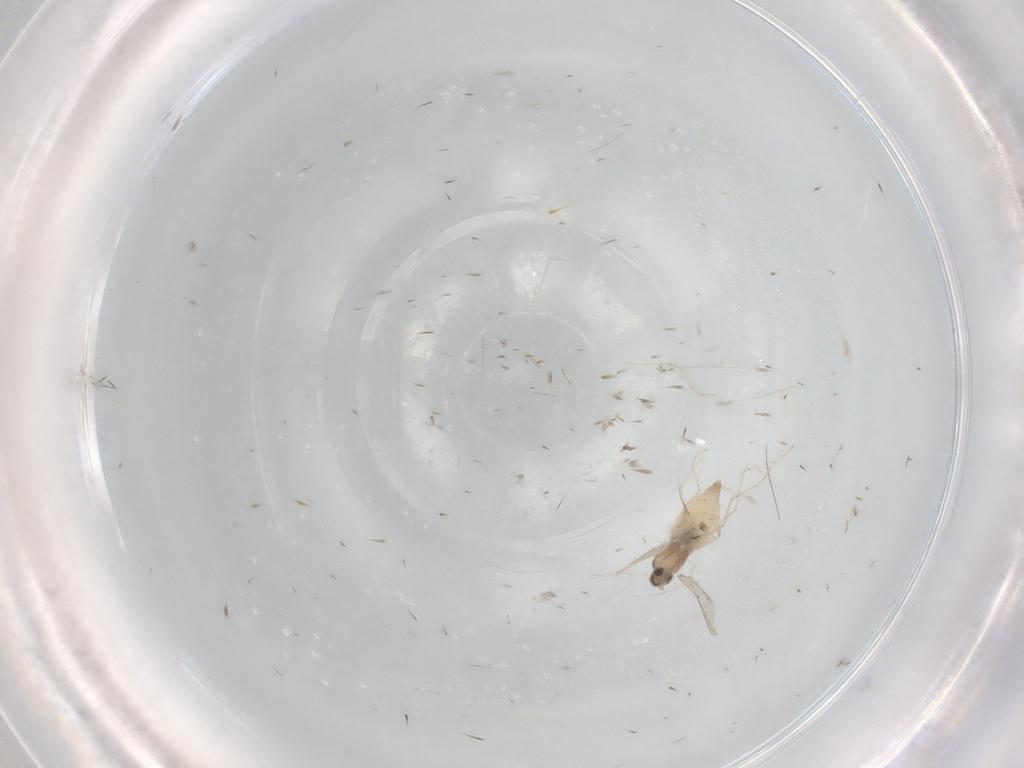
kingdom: Animalia
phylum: Arthropoda
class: Insecta
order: Diptera
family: Cecidomyiidae
